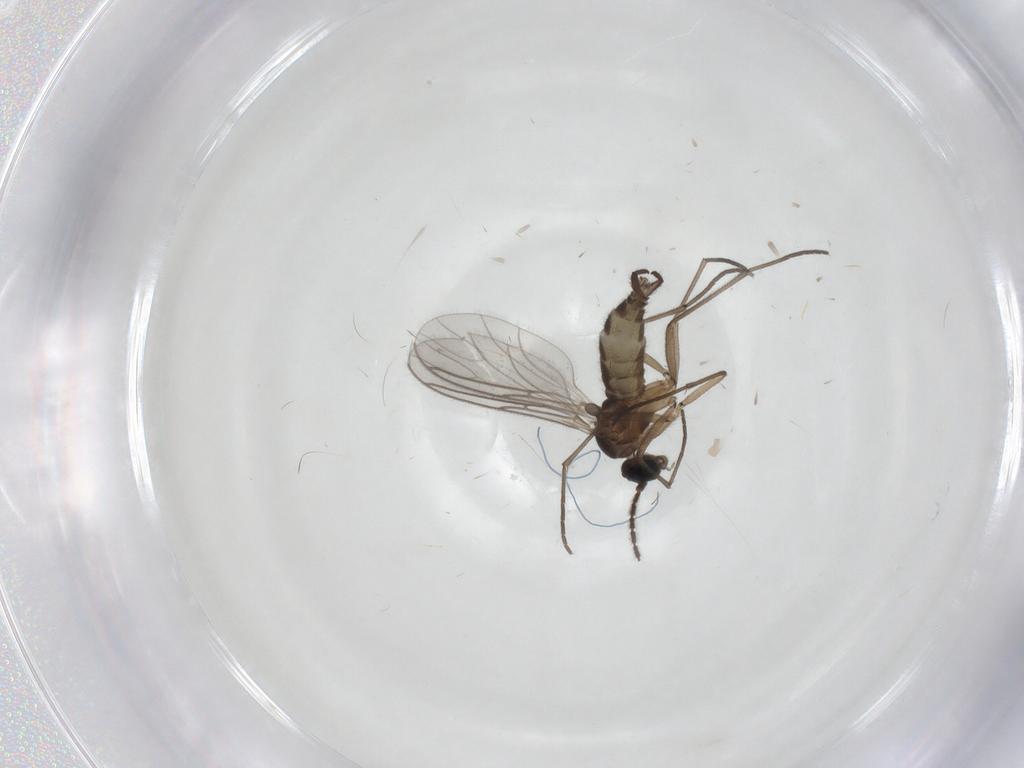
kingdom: Animalia
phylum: Arthropoda
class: Insecta
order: Diptera
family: Sciaridae
